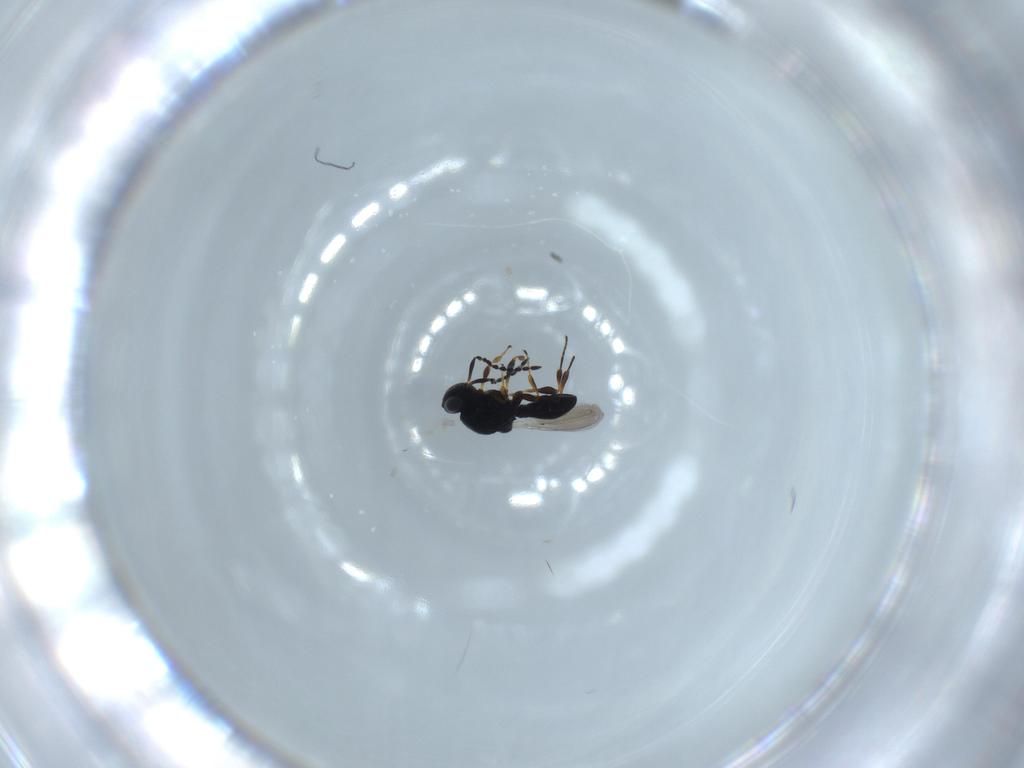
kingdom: Animalia
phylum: Arthropoda
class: Insecta
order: Hymenoptera
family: Platygastridae
